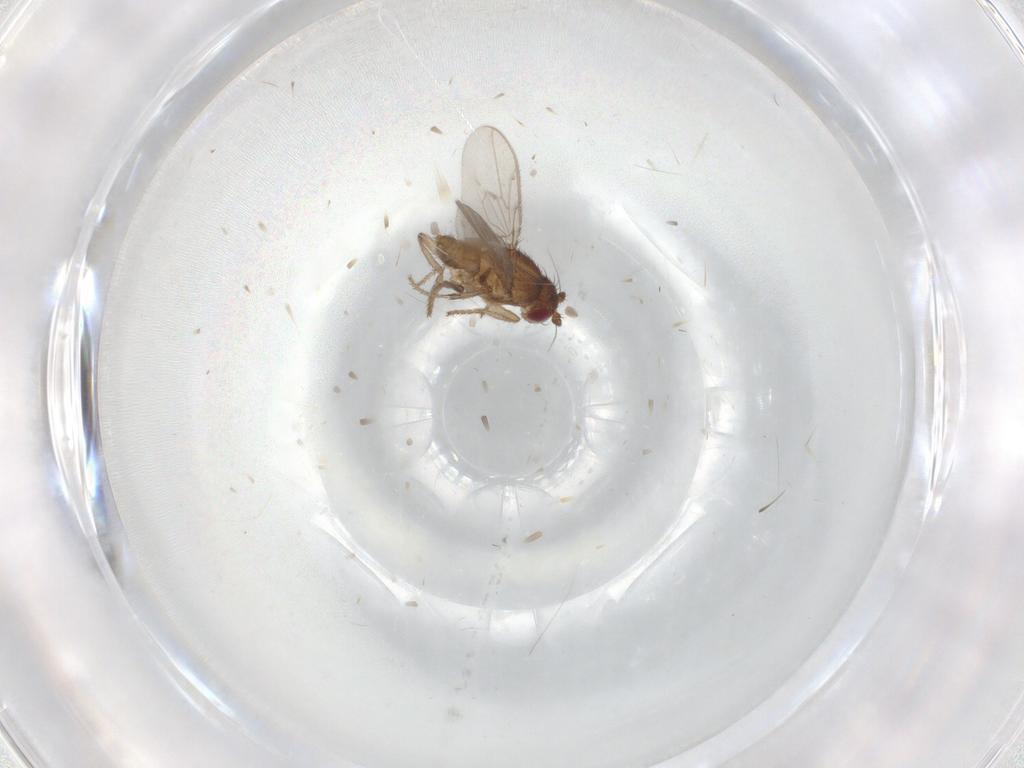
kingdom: Animalia
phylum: Arthropoda
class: Insecta
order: Diptera
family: Sphaeroceridae
